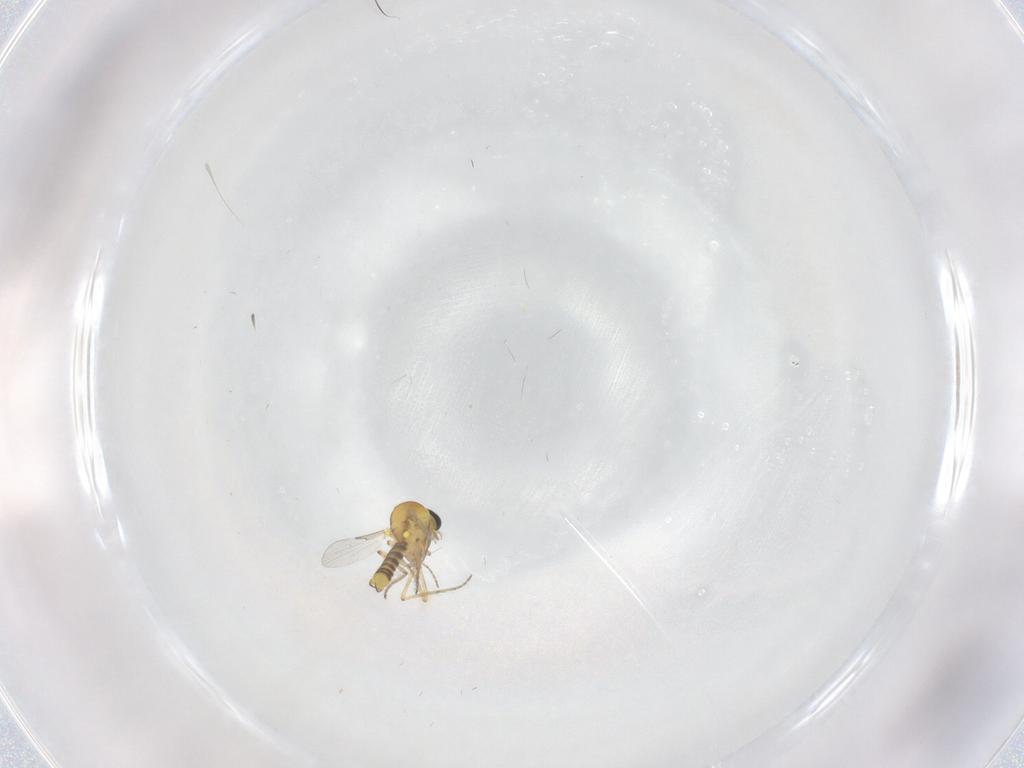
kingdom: Animalia
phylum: Arthropoda
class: Insecta
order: Diptera
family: Ceratopogonidae
